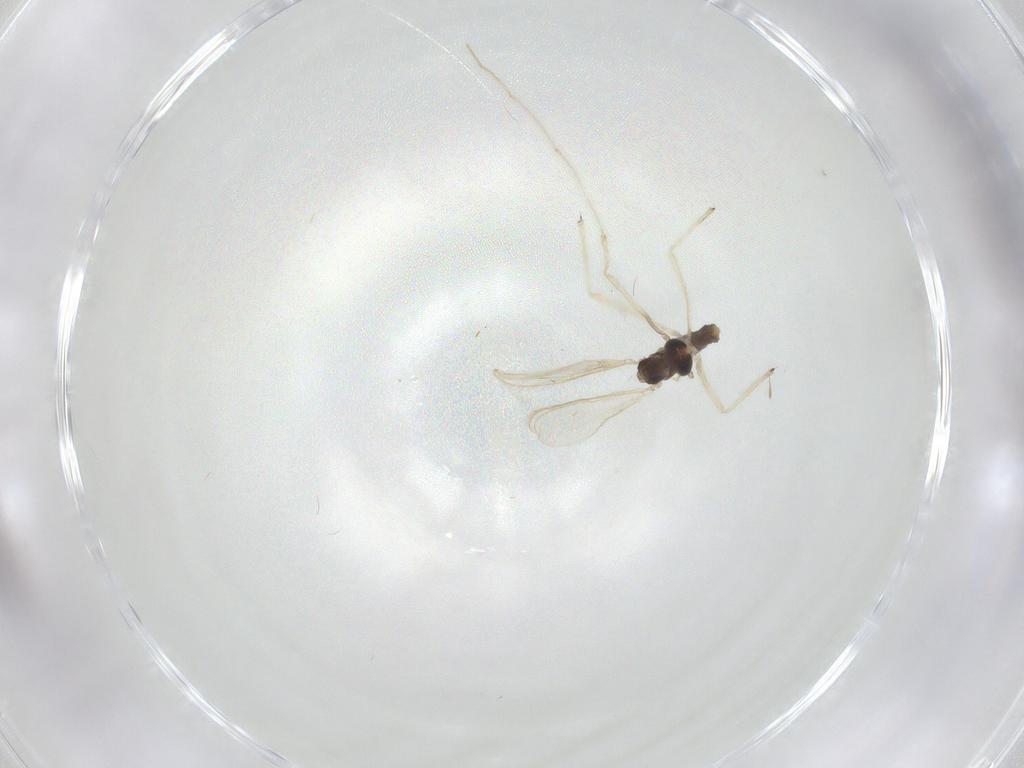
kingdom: Animalia
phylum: Arthropoda
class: Insecta
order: Diptera
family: Chironomidae
